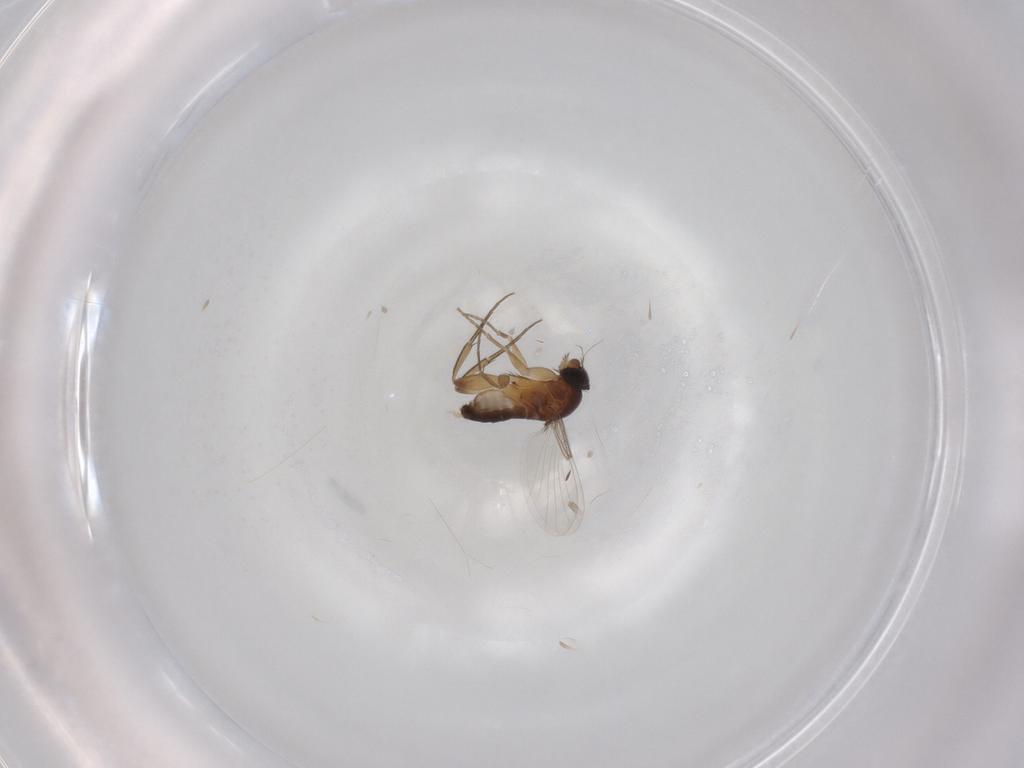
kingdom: Animalia
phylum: Arthropoda
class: Insecta
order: Diptera
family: Phoridae
